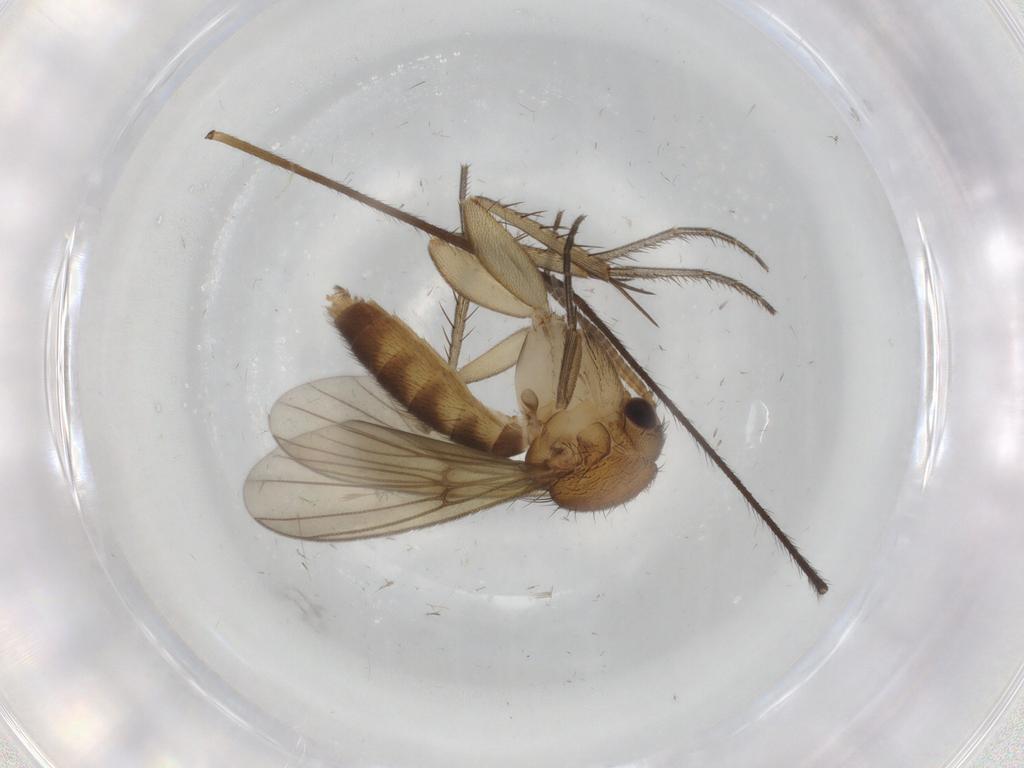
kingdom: Animalia
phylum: Arthropoda
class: Insecta
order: Diptera
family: Mycetophilidae
